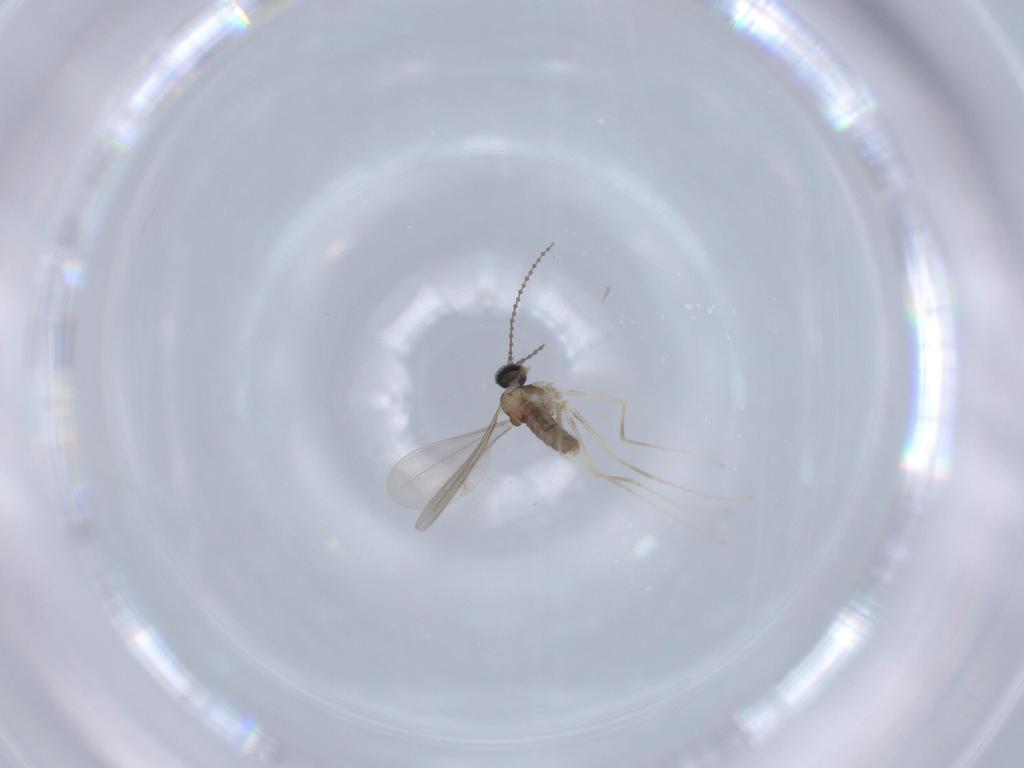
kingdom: Animalia
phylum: Arthropoda
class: Insecta
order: Diptera
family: Cecidomyiidae
